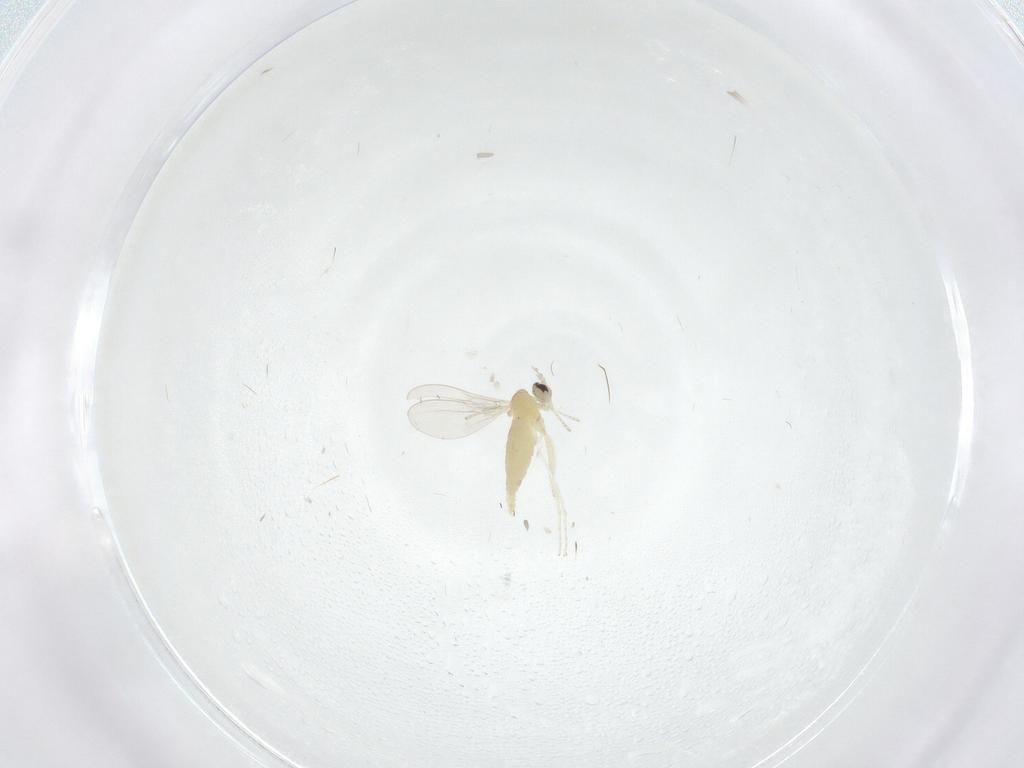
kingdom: Animalia
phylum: Arthropoda
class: Insecta
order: Diptera
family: Cecidomyiidae
